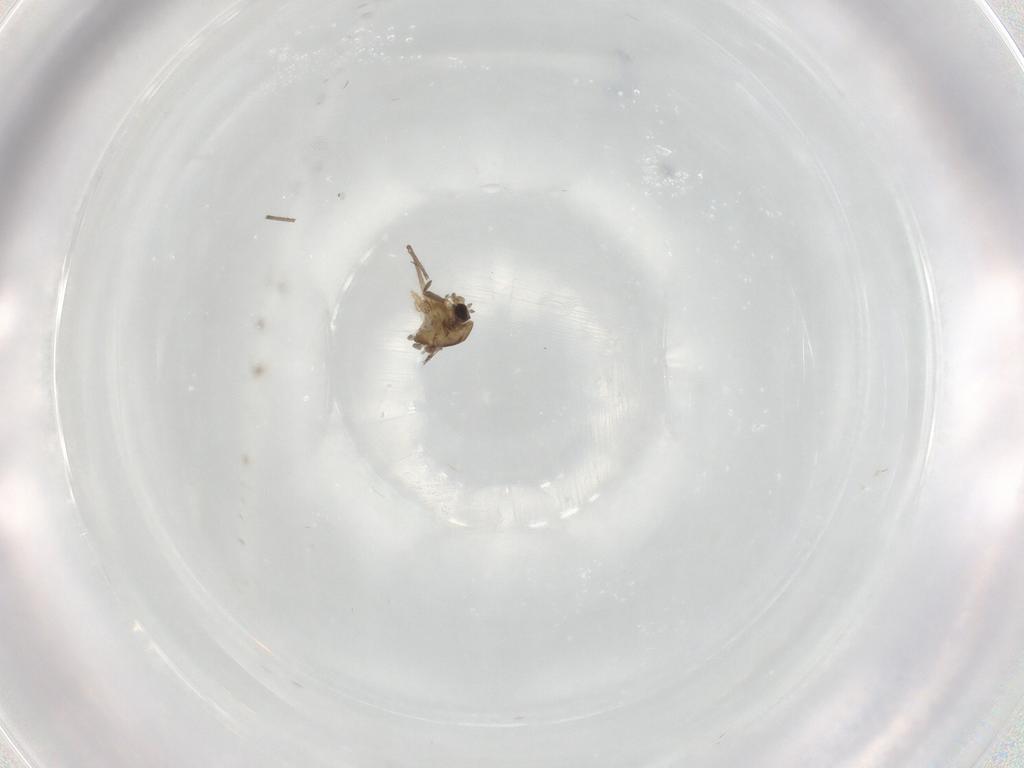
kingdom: Animalia
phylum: Arthropoda
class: Insecta
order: Diptera
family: Chironomidae
